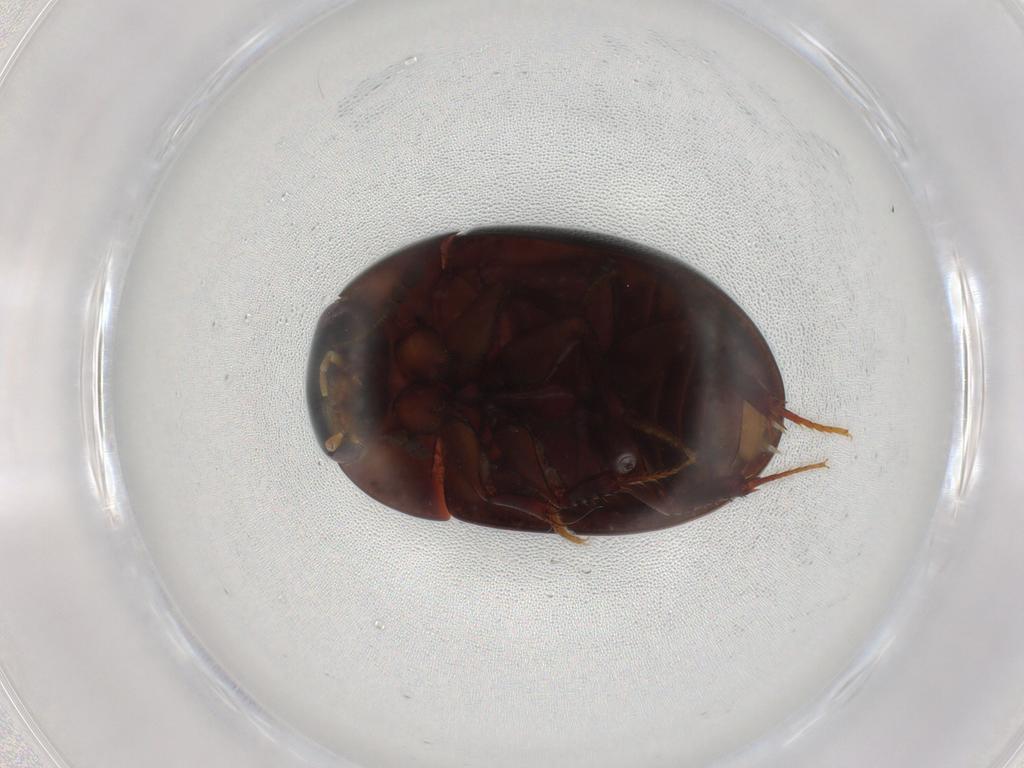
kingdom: Animalia
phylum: Arthropoda
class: Insecta
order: Coleoptera
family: Hydrophilidae
